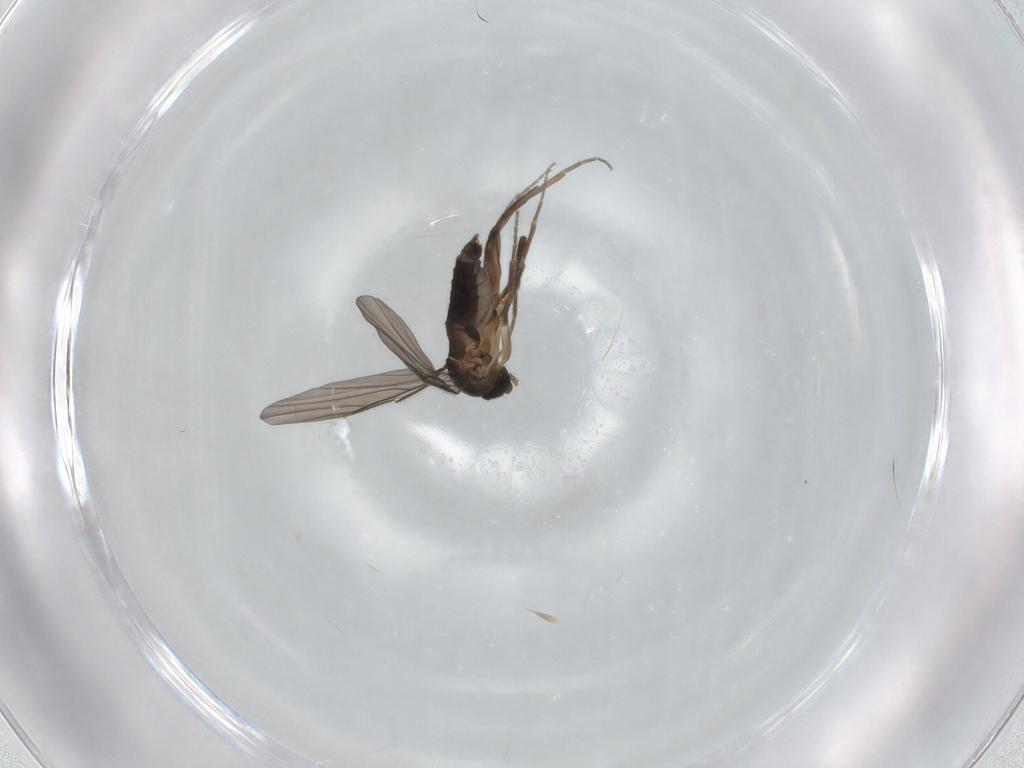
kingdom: Animalia
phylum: Arthropoda
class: Insecta
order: Diptera
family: Phoridae
